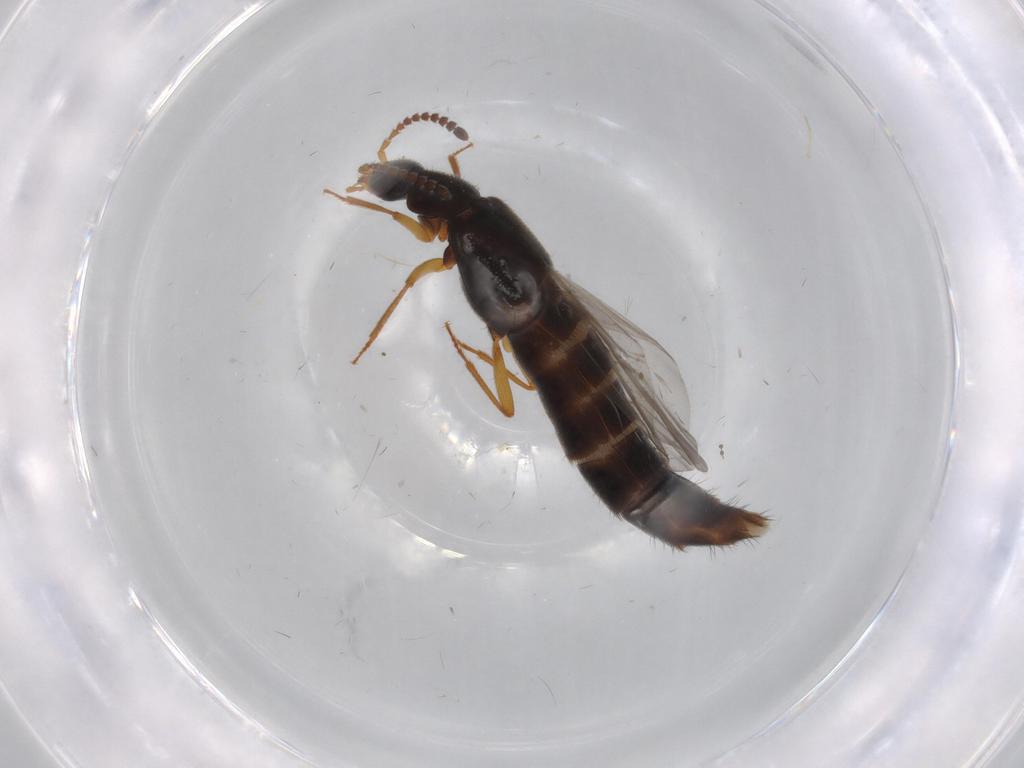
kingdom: Animalia
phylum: Arthropoda
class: Insecta
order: Coleoptera
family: Staphylinidae
